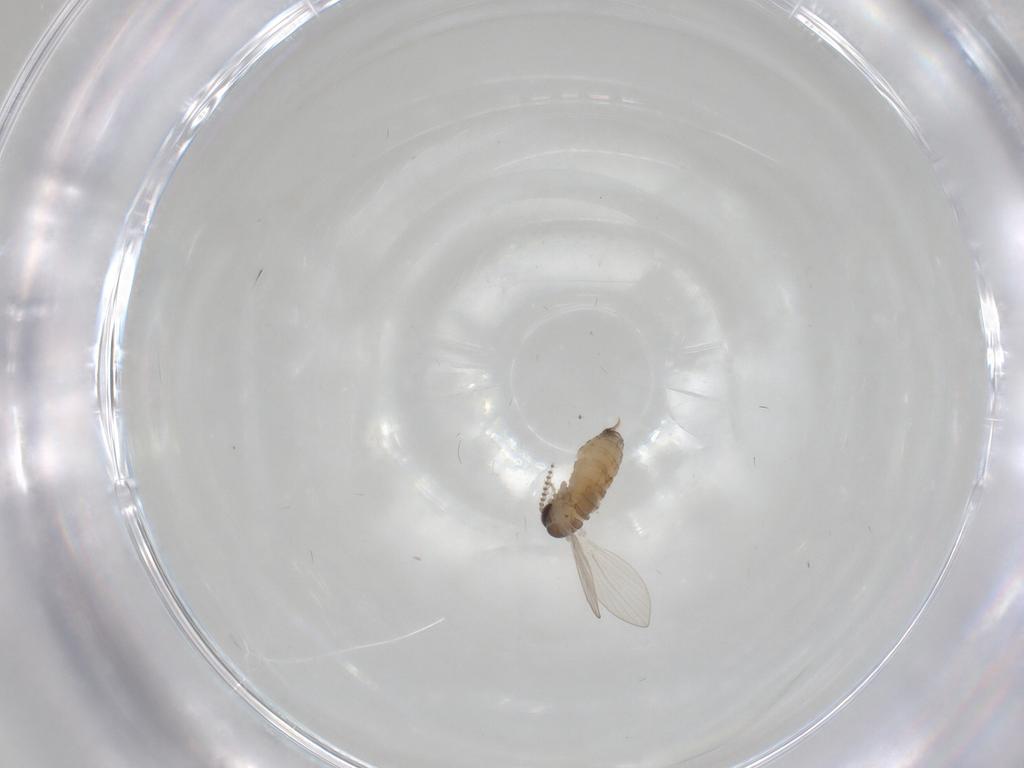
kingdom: Animalia
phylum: Arthropoda
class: Insecta
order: Diptera
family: Psychodidae
